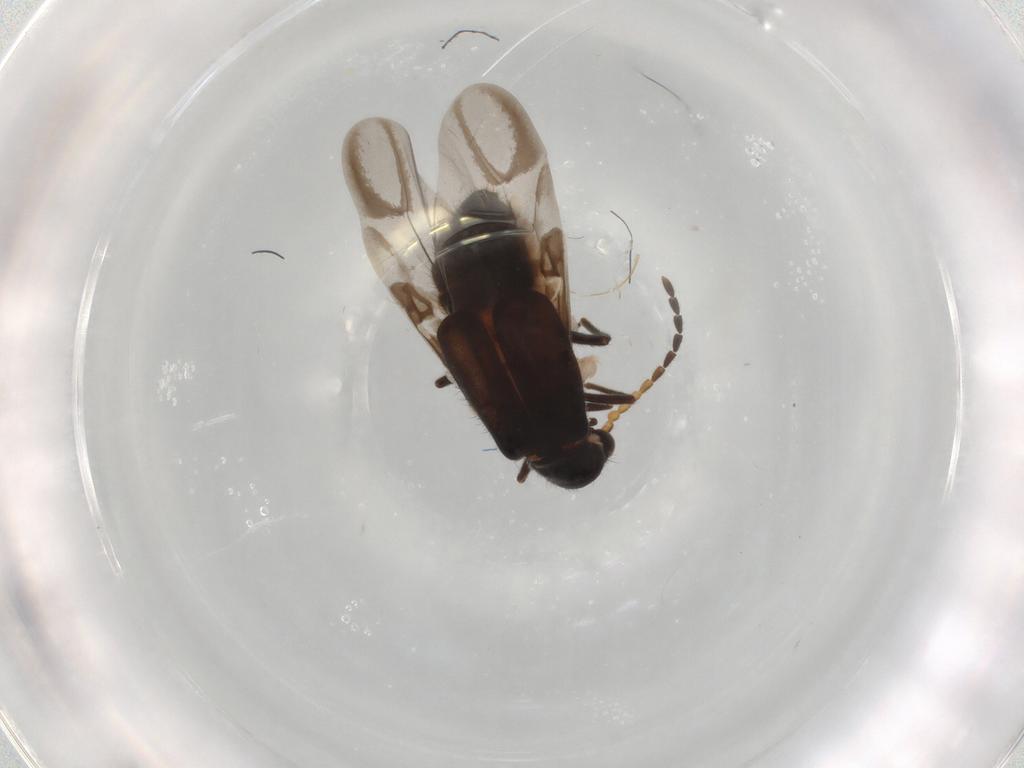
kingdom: Animalia
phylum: Arthropoda
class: Insecta
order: Coleoptera
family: Melyridae
